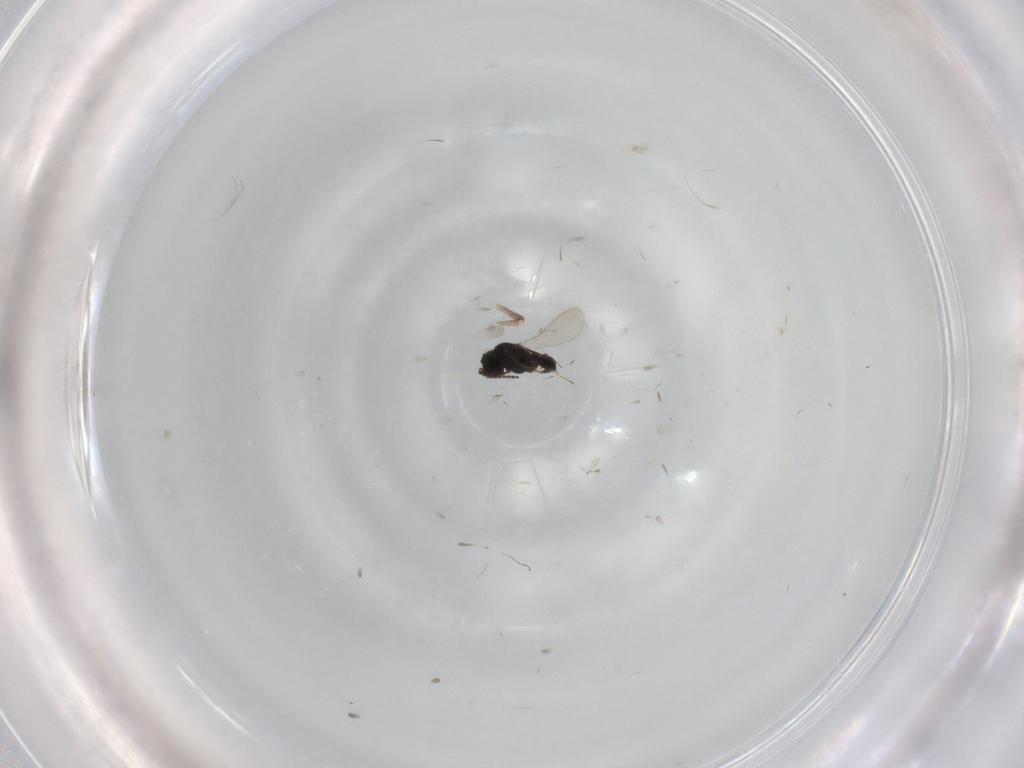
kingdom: Animalia
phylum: Arthropoda
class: Insecta
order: Hymenoptera
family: Scelionidae
